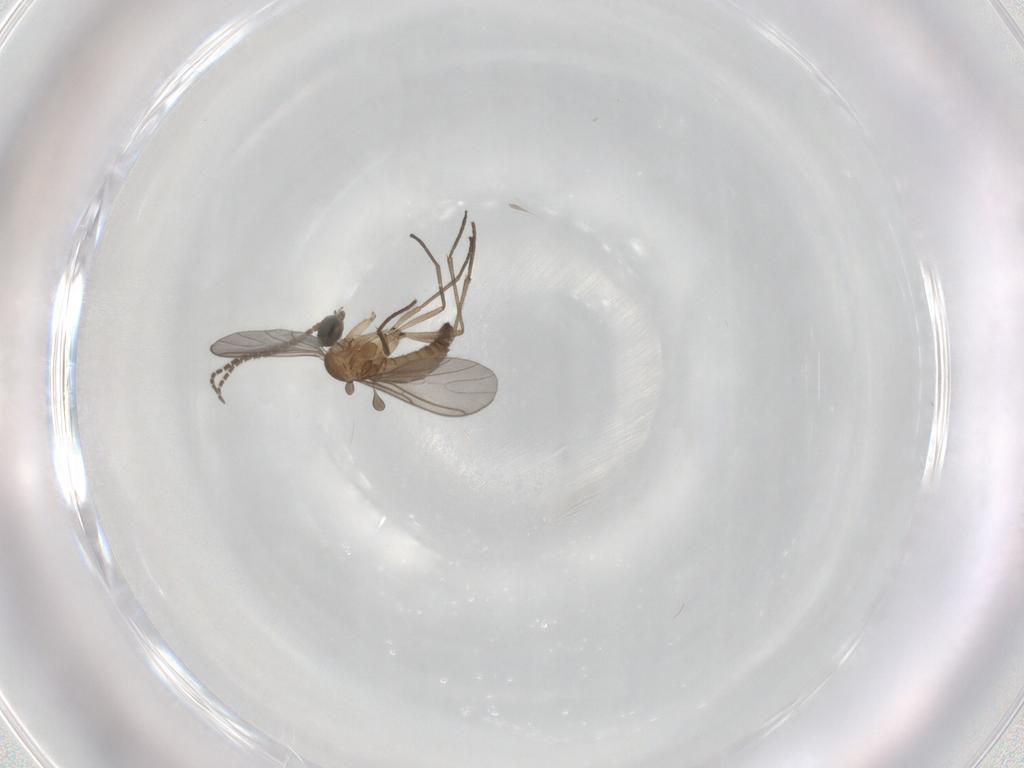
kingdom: Animalia
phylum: Arthropoda
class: Insecta
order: Diptera
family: Sciaridae
